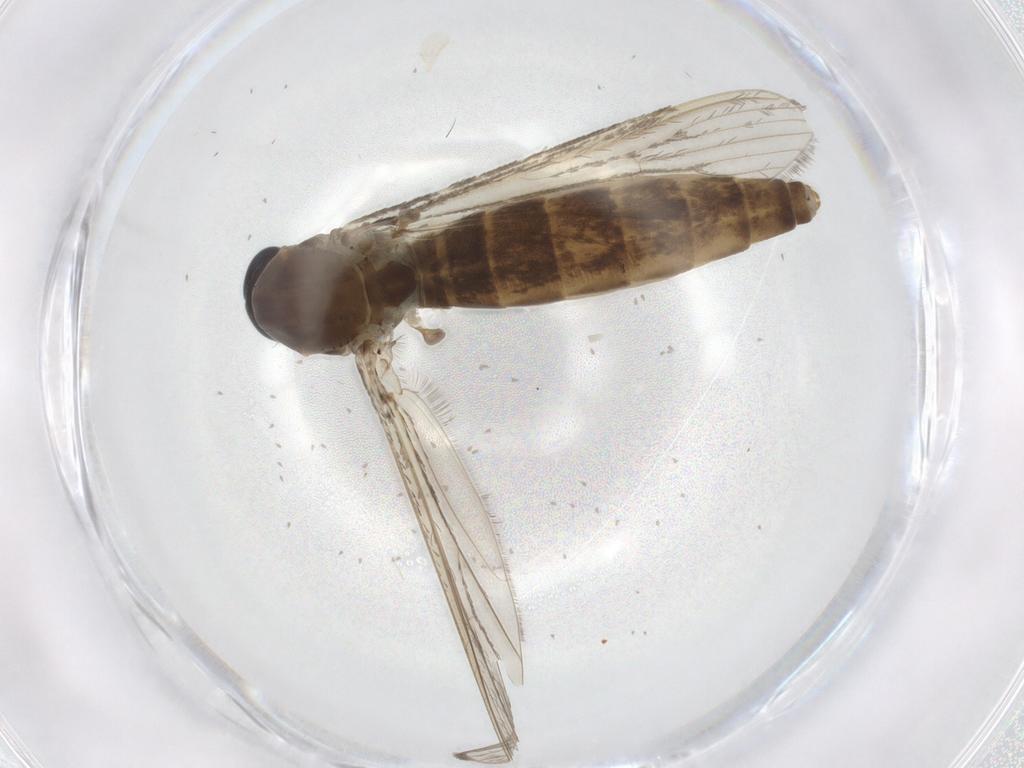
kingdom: Animalia
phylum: Arthropoda
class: Insecta
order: Diptera
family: Culicidae
